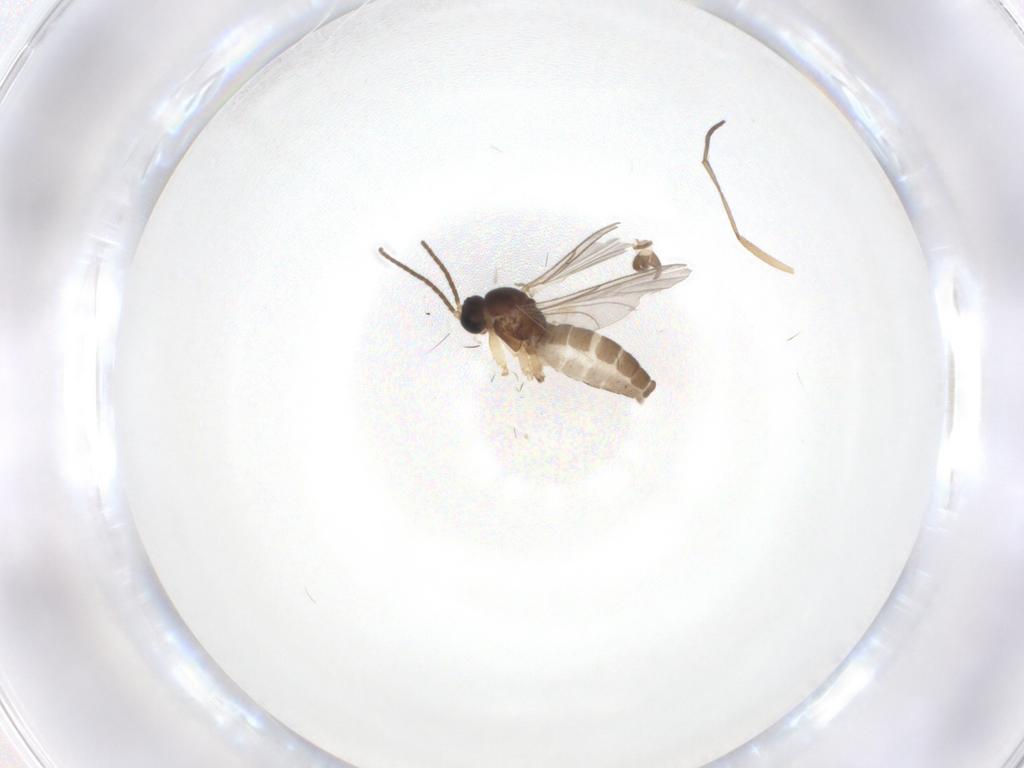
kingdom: Animalia
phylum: Arthropoda
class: Insecta
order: Diptera
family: Sciaridae
